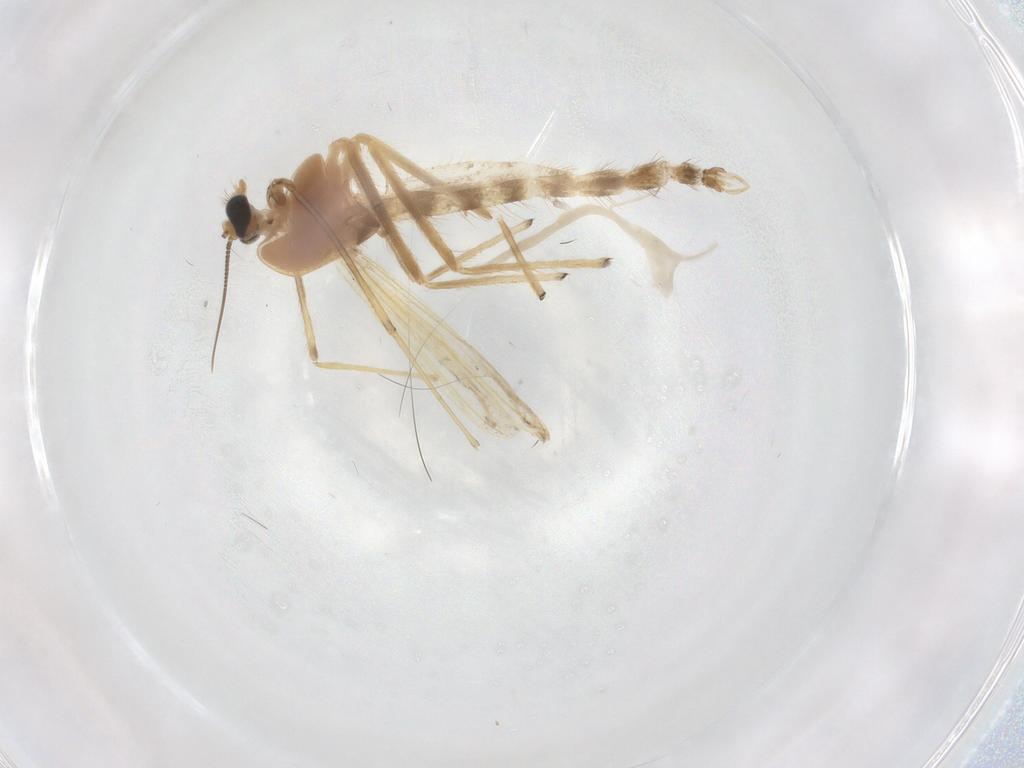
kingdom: Animalia
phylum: Arthropoda
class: Insecta
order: Diptera
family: Chironomidae
